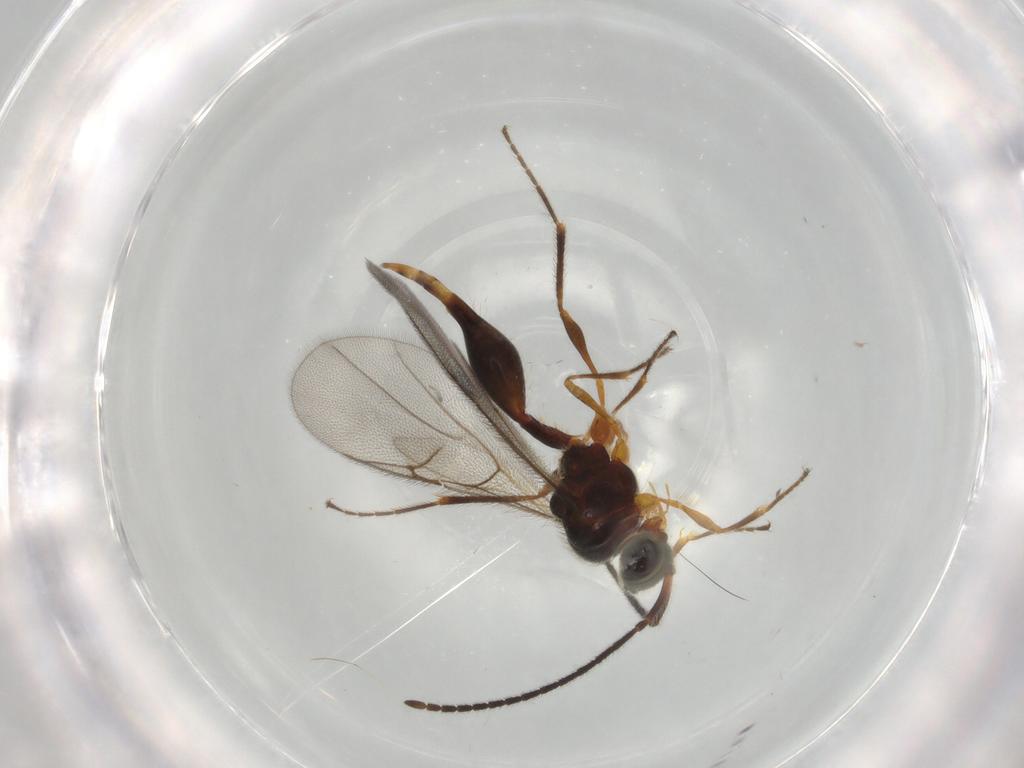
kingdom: Animalia
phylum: Arthropoda
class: Insecta
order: Hymenoptera
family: Diapriidae
